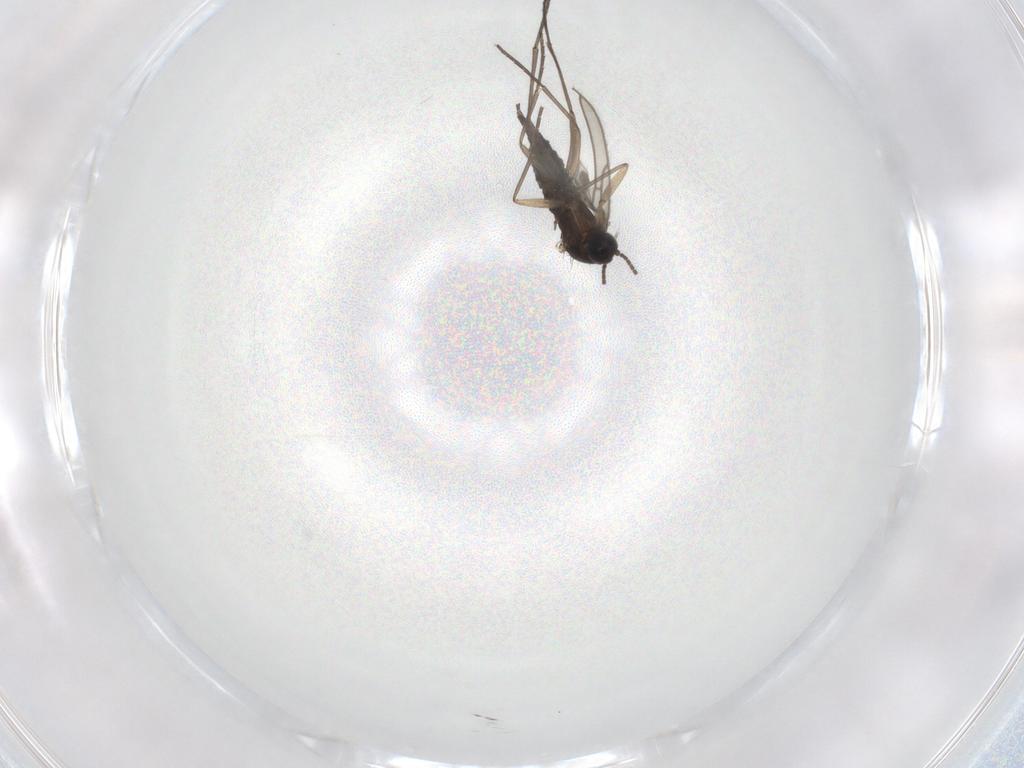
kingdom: Animalia
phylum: Arthropoda
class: Insecta
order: Diptera
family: Sciaridae
